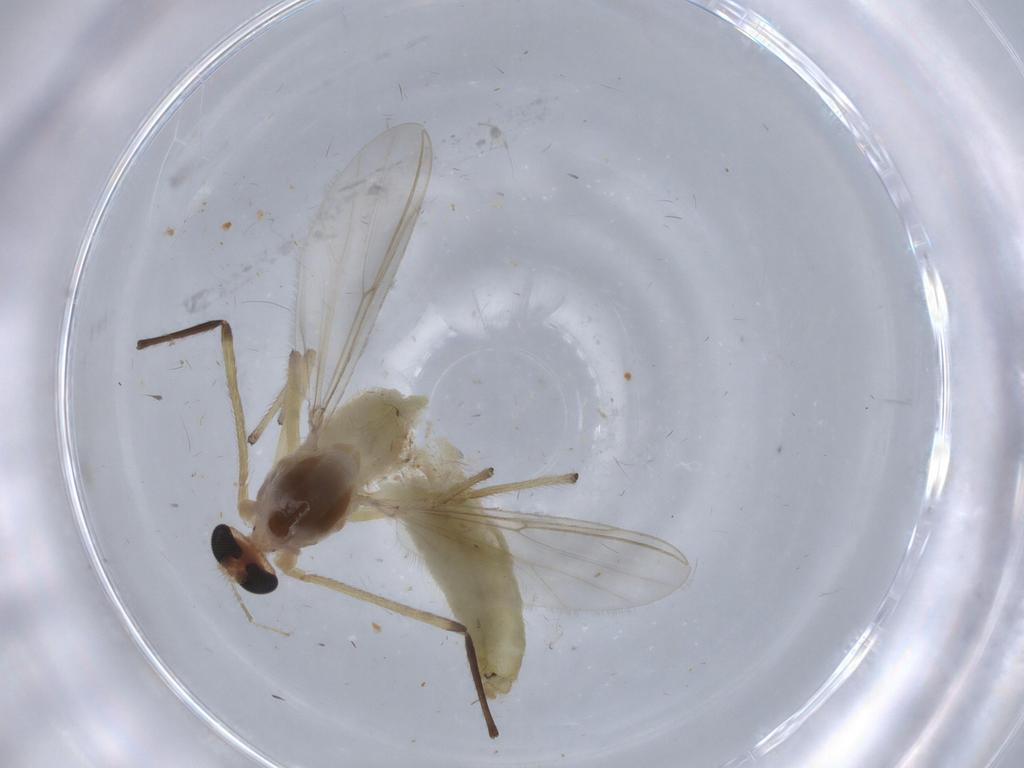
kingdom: Animalia
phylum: Arthropoda
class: Insecta
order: Diptera
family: Chironomidae
